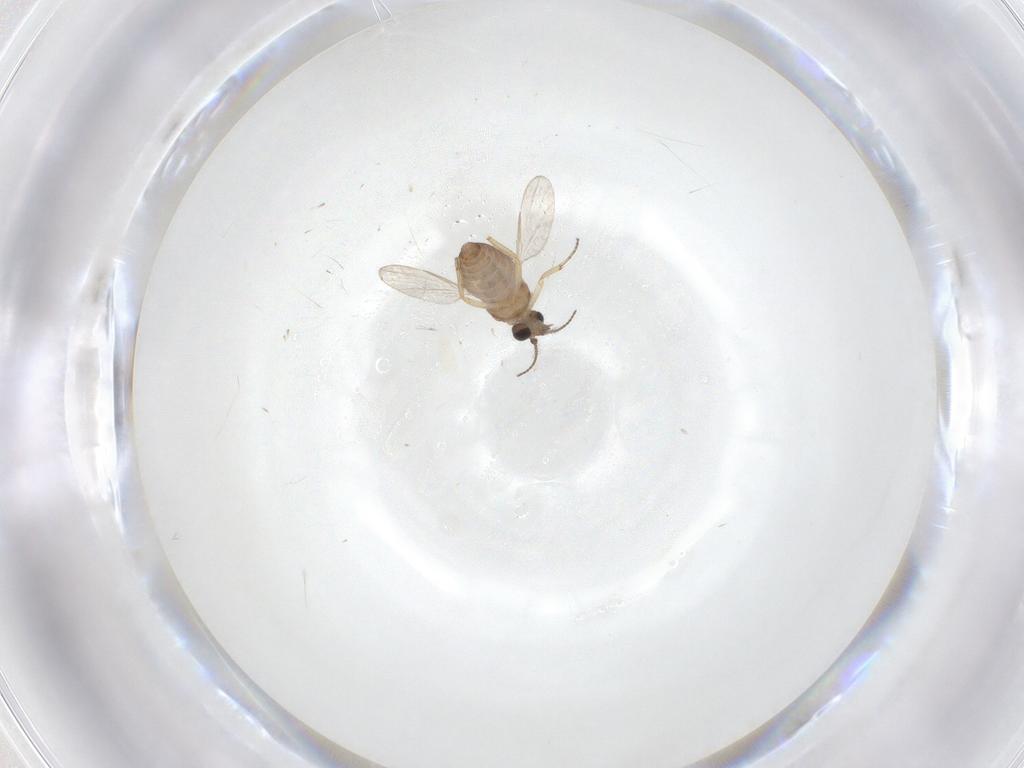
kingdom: Animalia
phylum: Arthropoda
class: Insecta
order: Diptera
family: Ceratopogonidae
